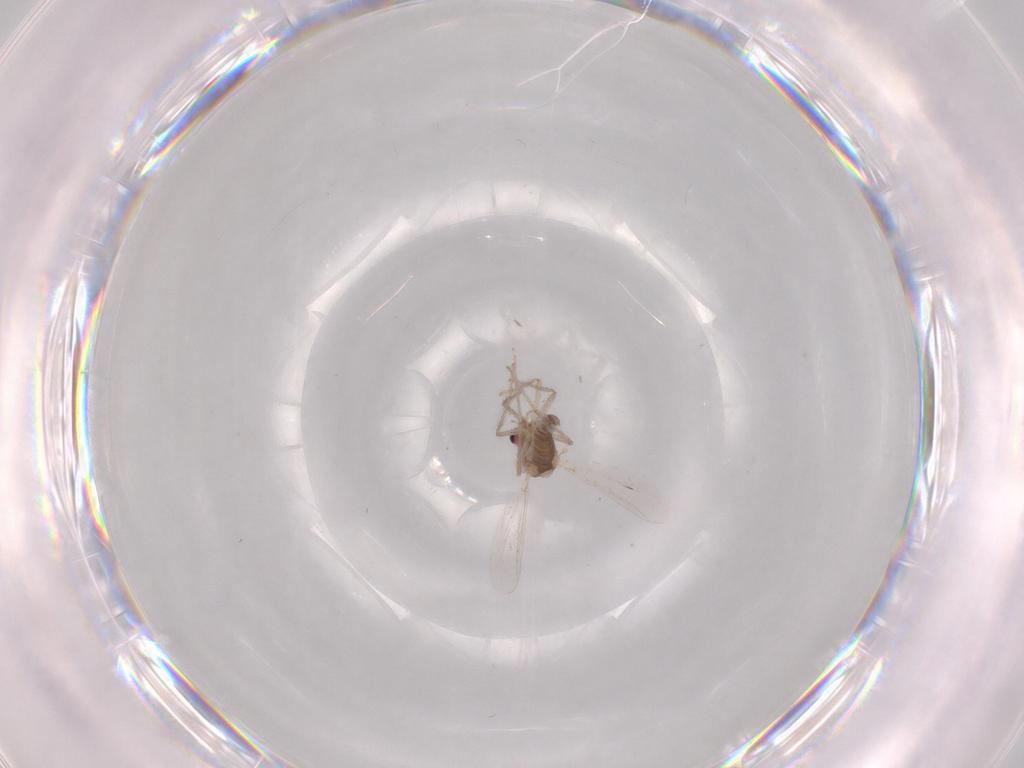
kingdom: Animalia
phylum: Arthropoda
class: Insecta
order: Diptera
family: Chironomidae
